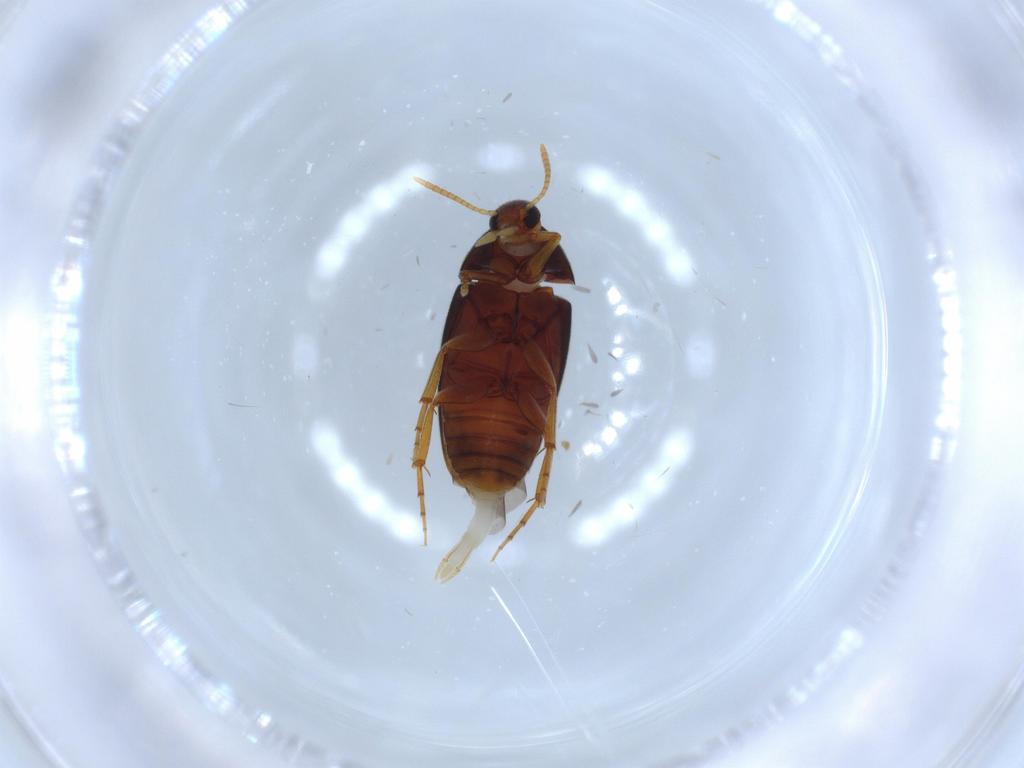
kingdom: Animalia
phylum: Arthropoda
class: Insecta
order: Coleoptera
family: Scraptiidae
